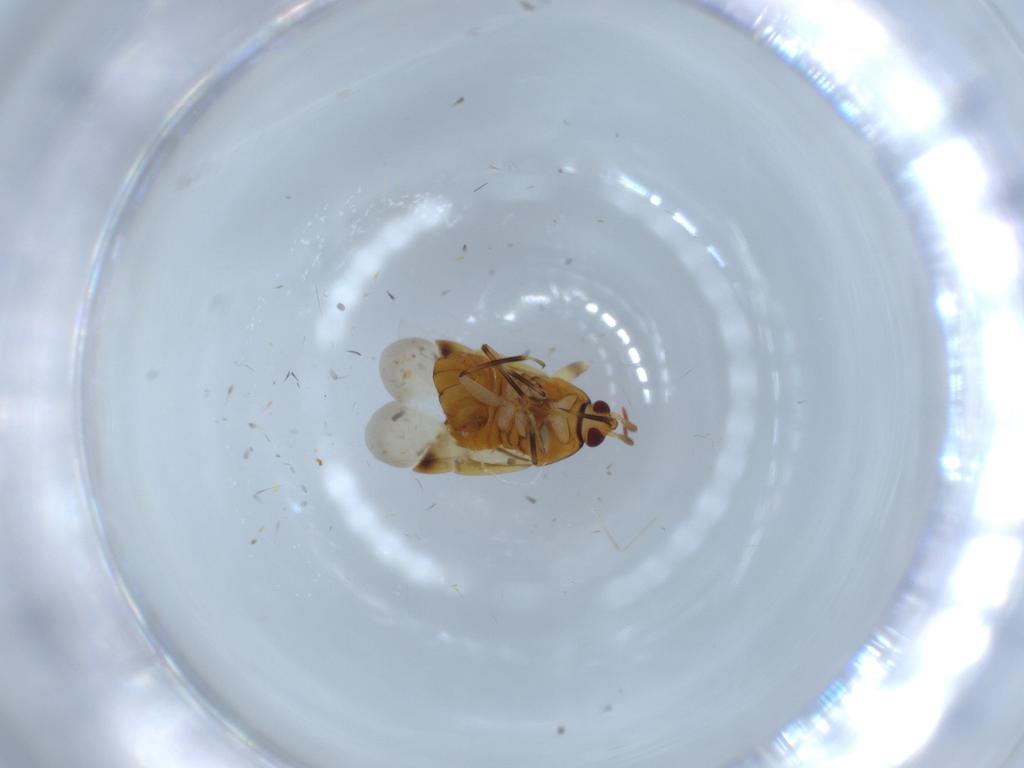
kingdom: Animalia
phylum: Arthropoda
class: Insecta
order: Hemiptera
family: Anthocoridae
